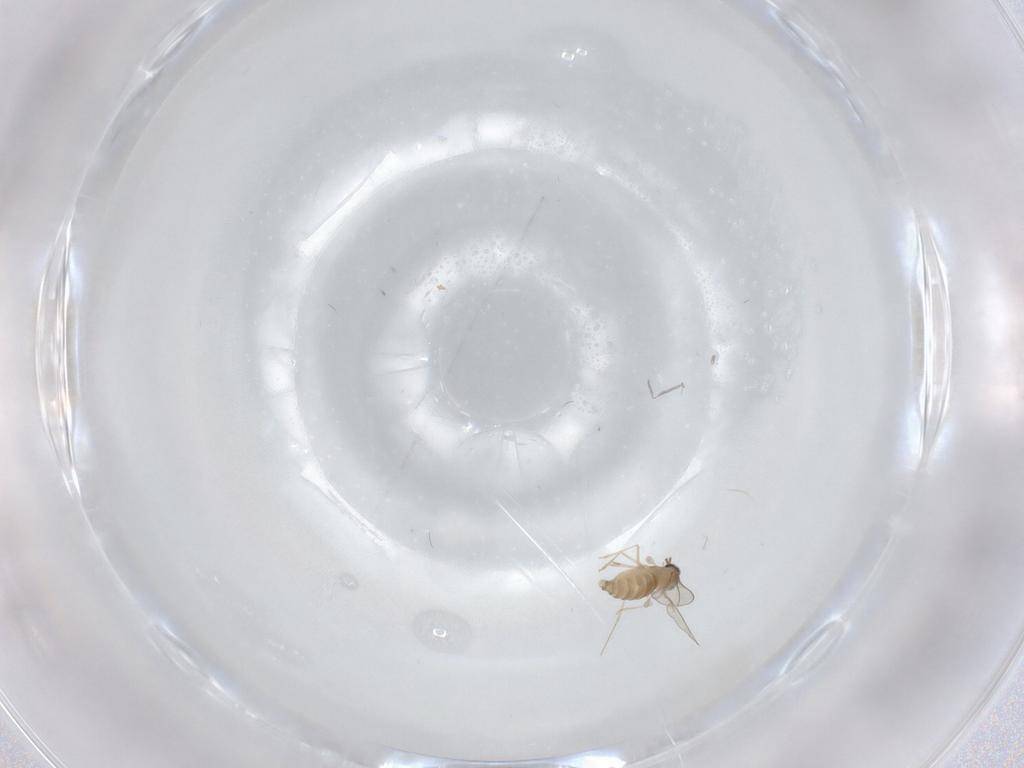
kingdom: Animalia
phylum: Arthropoda
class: Insecta
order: Diptera
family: Cecidomyiidae
